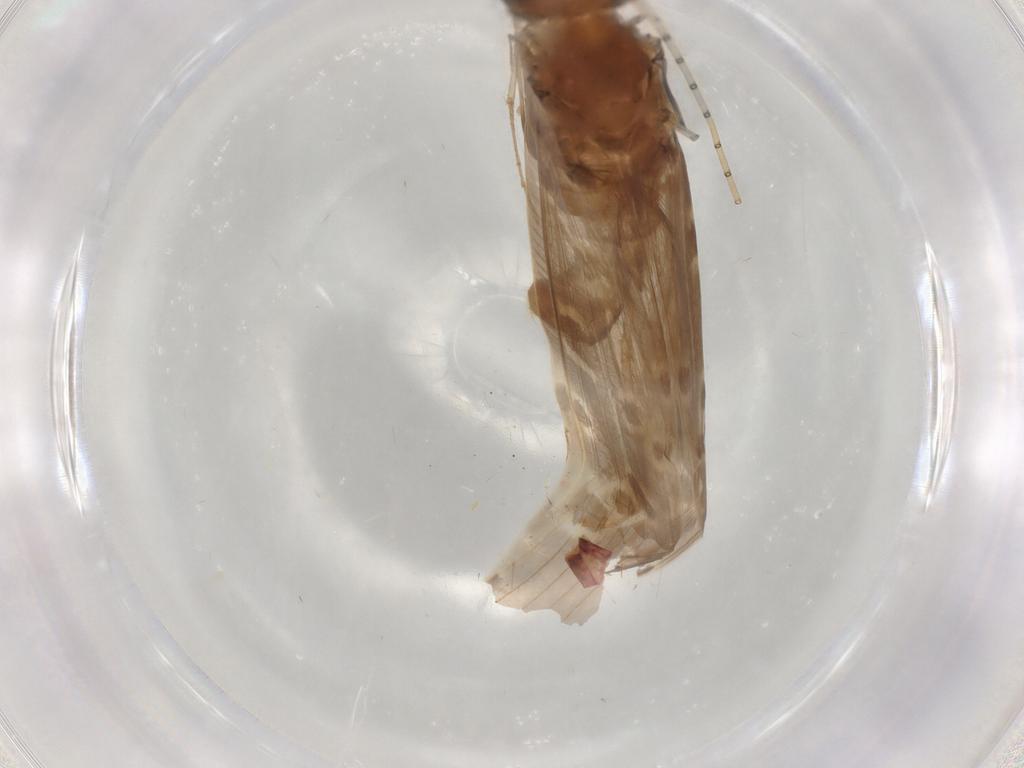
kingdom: Animalia
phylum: Arthropoda
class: Insecta
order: Trichoptera
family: Leptoceridae
